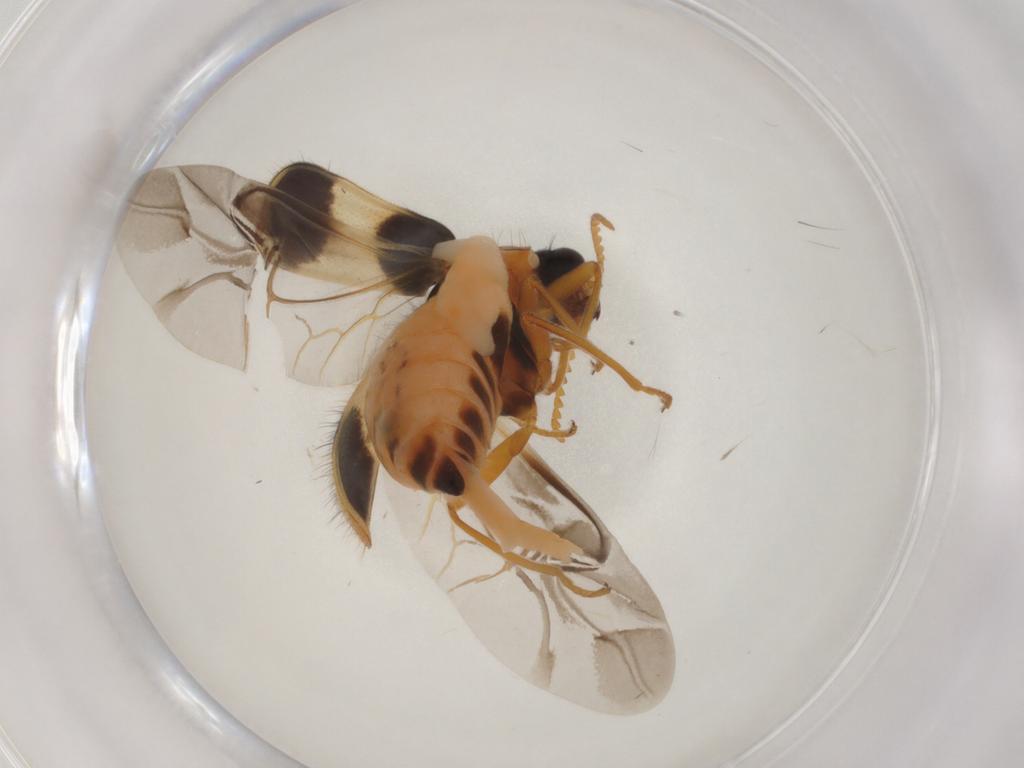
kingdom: Animalia
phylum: Arthropoda
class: Insecta
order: Coleoptera
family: Melyridae
